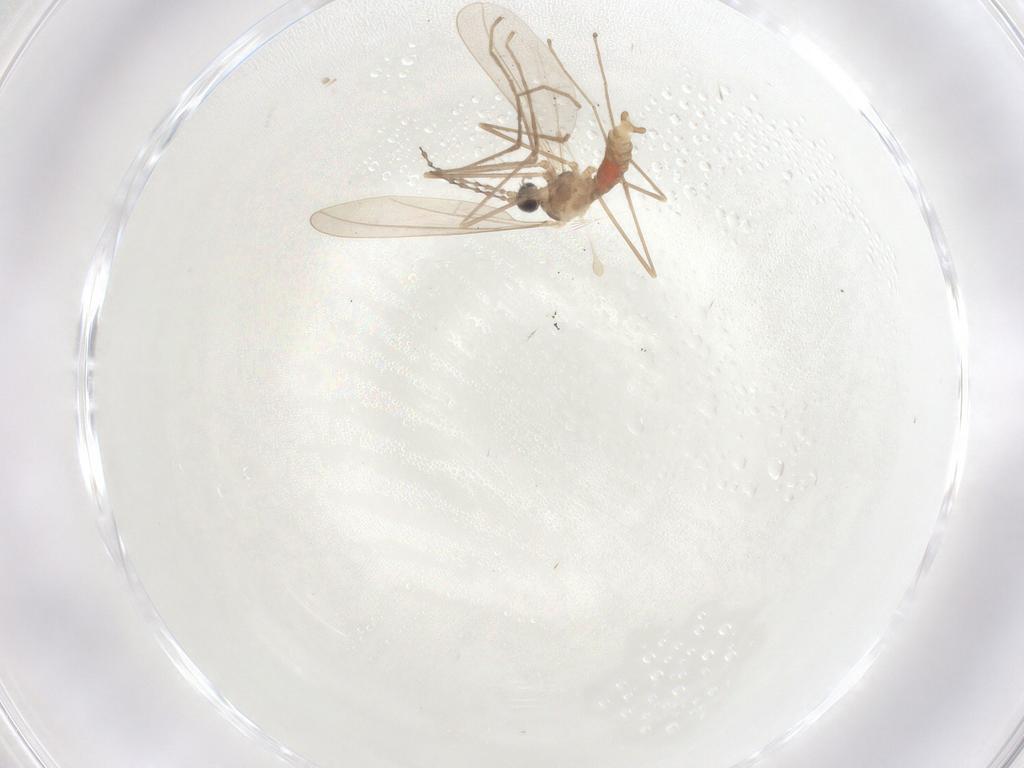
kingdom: Animalia
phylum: Arthropoda
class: Insecta
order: Diptera
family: Cecidomyiidae
